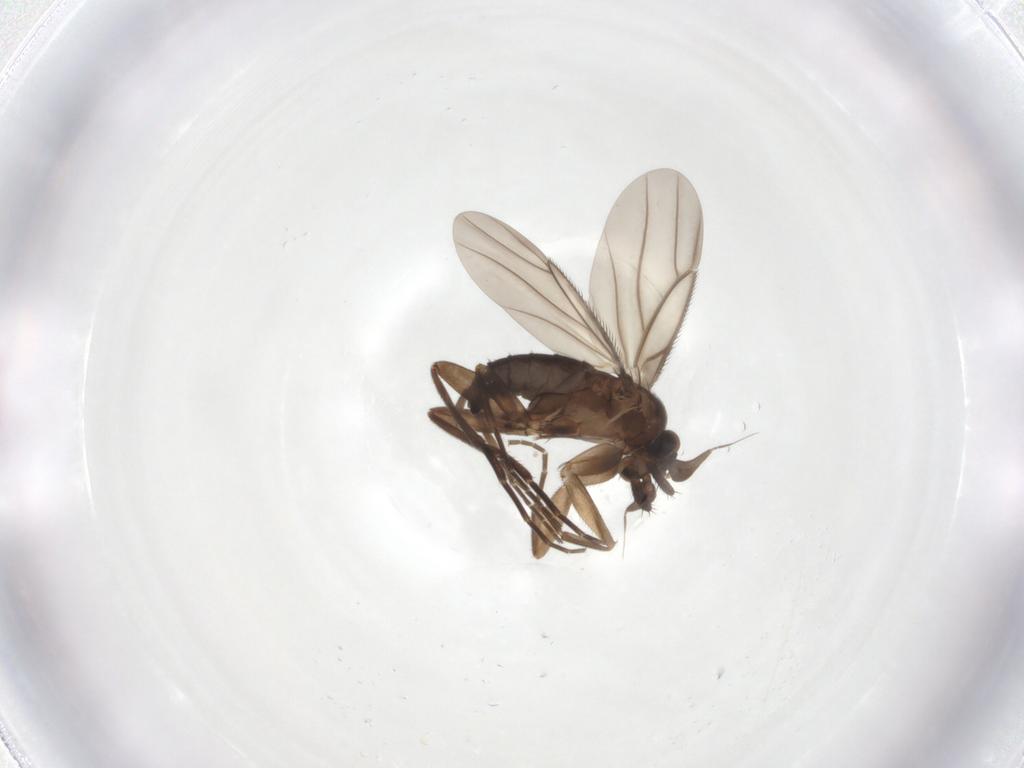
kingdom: Animalia
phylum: Arthropoda
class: Insecta
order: Diptera
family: Phoridae
